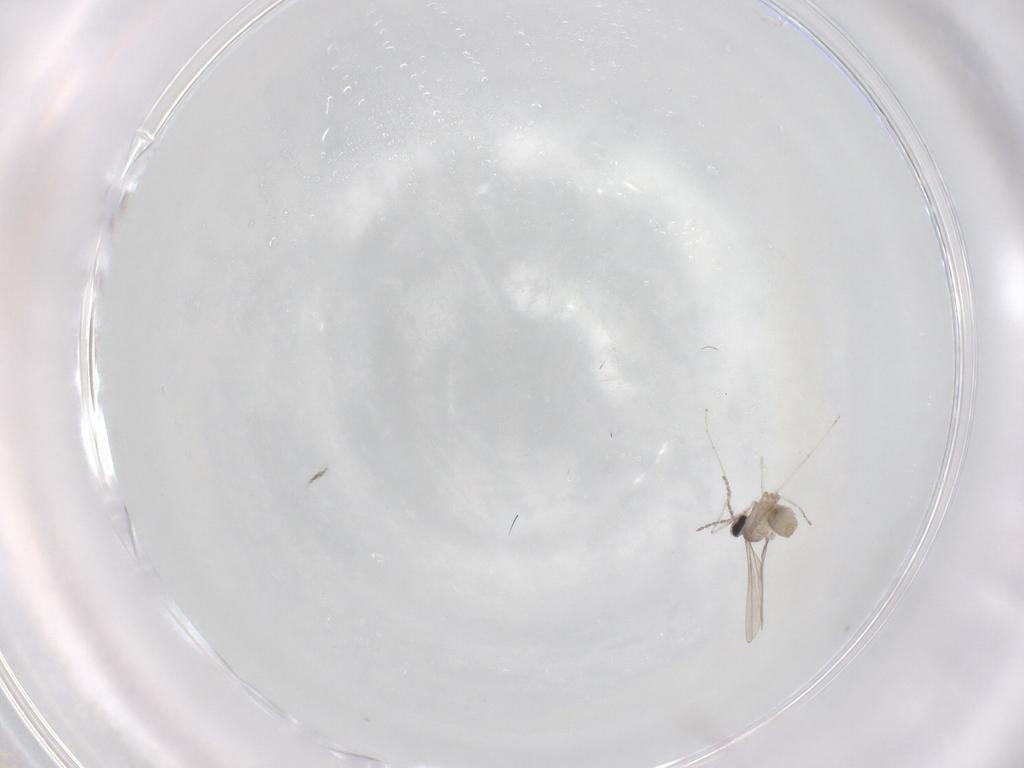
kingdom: Animalia
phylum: Arthropoda
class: Insecta
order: Diptera
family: Cecidomyiidae
